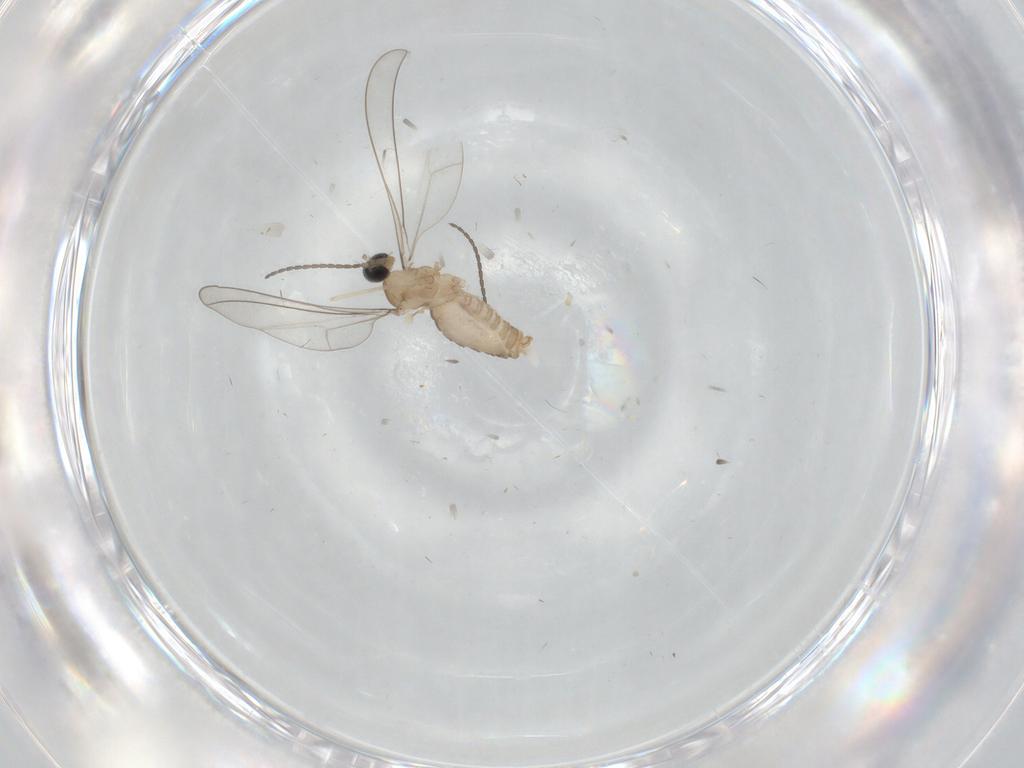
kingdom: Animalia
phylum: Arthropoda
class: Insecta
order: Diptera
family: Cecidomyiidae
